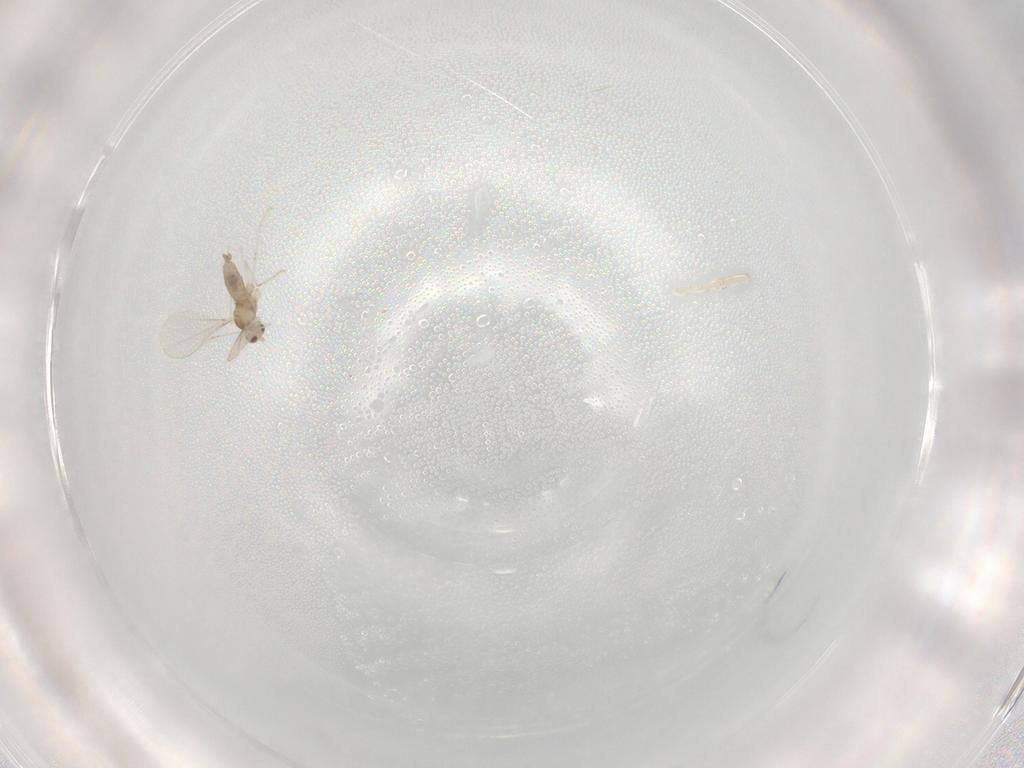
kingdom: Animalia
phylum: Arthropoda
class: Insecta
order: Diptera
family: Cecidomyiidae
